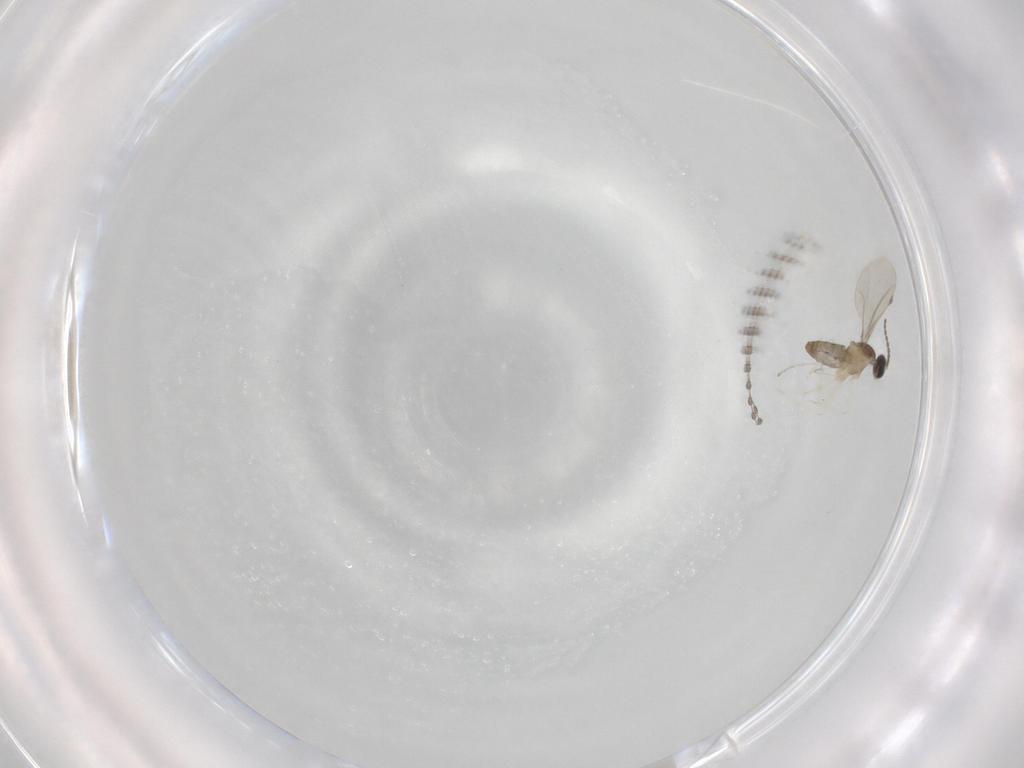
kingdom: Animalia
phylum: Arthropoda
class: Insecta
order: Diptera
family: Cecidomyiidae
